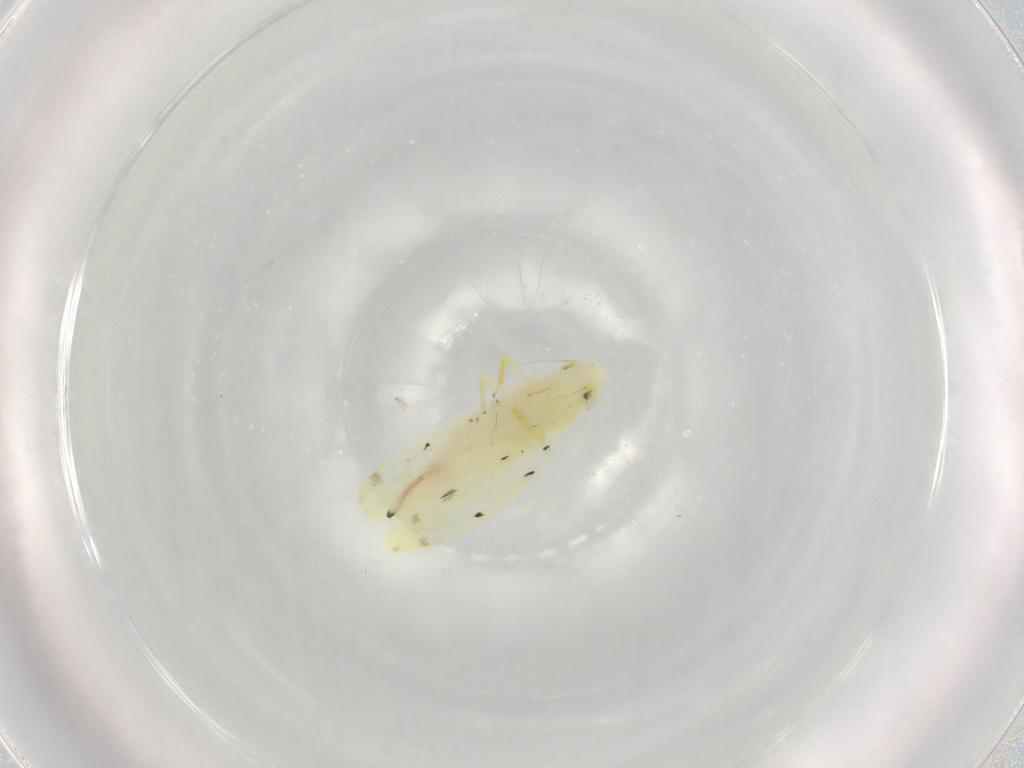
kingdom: Animalia
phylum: Arthropoda
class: Insecta
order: Hemiptera
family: Cicadellidae
